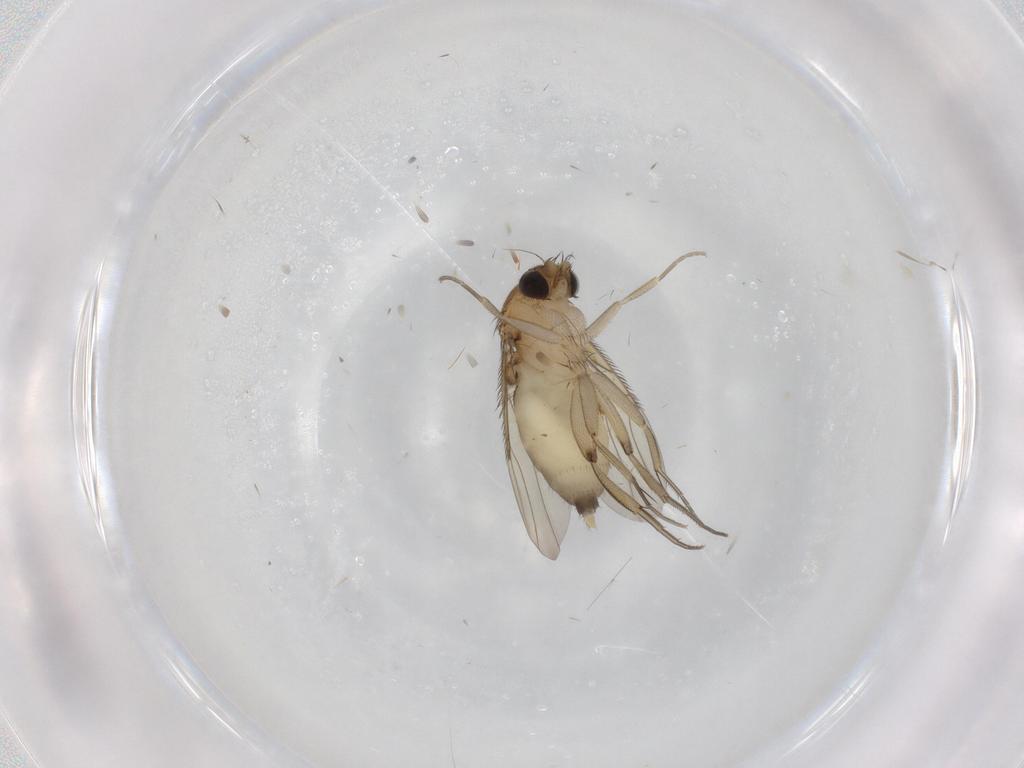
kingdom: Animalia
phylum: Arthropoda
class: Insecta
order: Diptera
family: Phoridae
